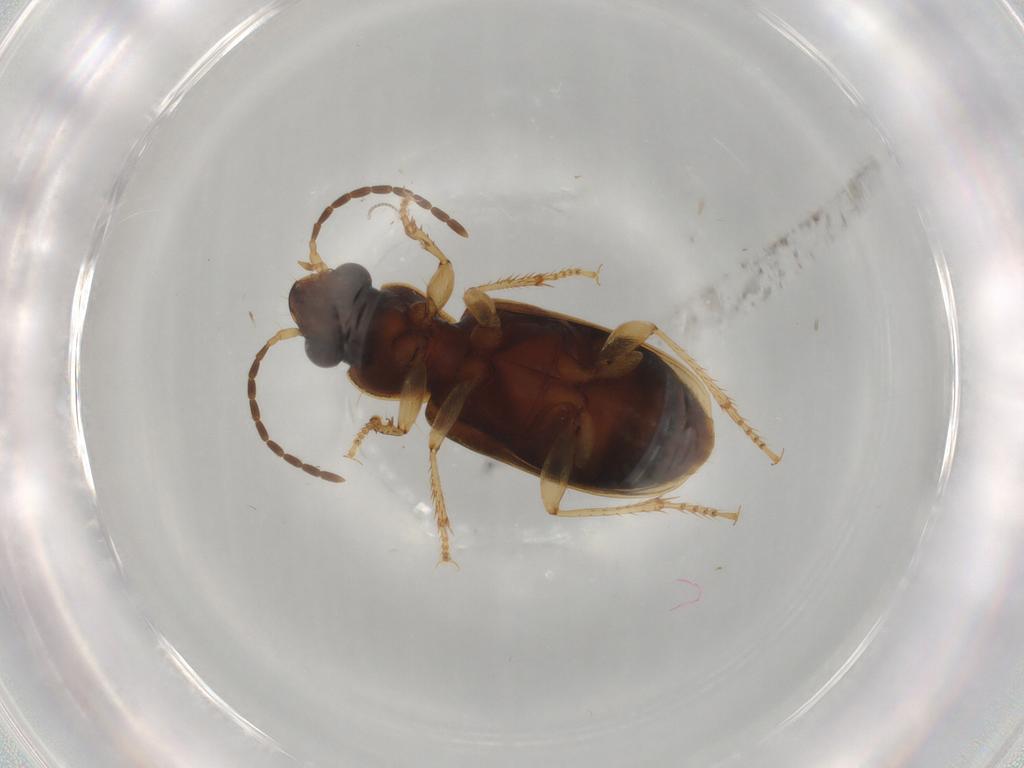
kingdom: Animalia
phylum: Arthropoda
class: Insecta
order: Coleoptera
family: Carabidae
